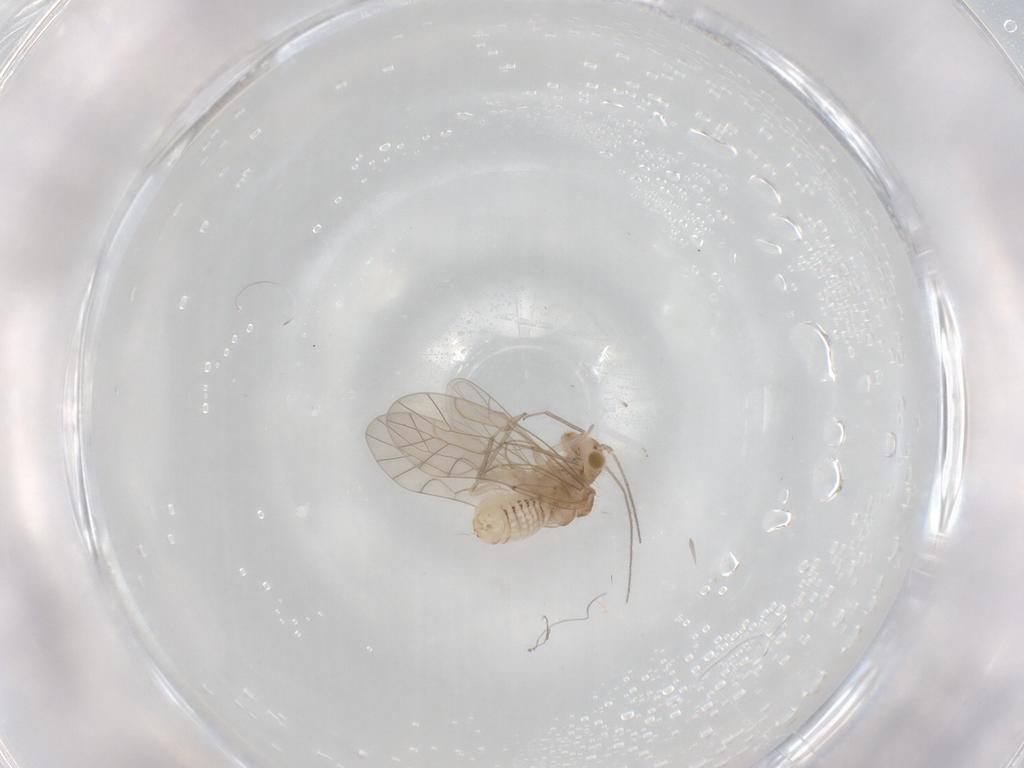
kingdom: Animalia
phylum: Arthropoda
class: Insecta
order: Psocodea
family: Lachesillidae
